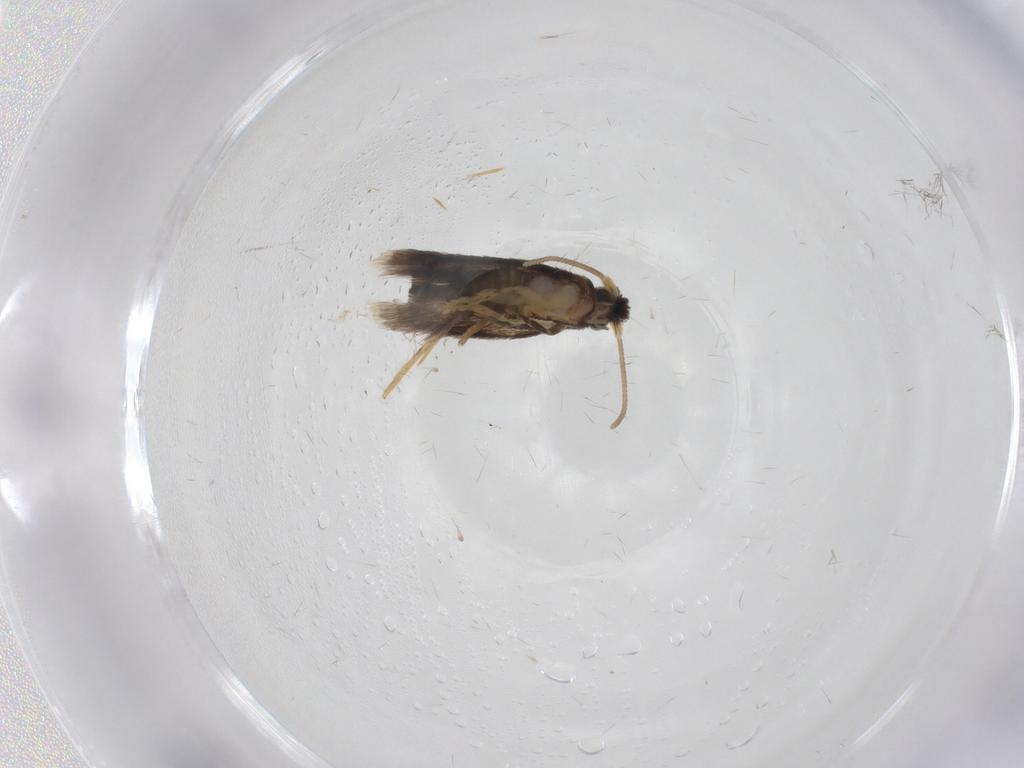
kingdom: Animalia
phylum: Arthropoda
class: Insecta
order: Lepidoptera
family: Nepticulidae
